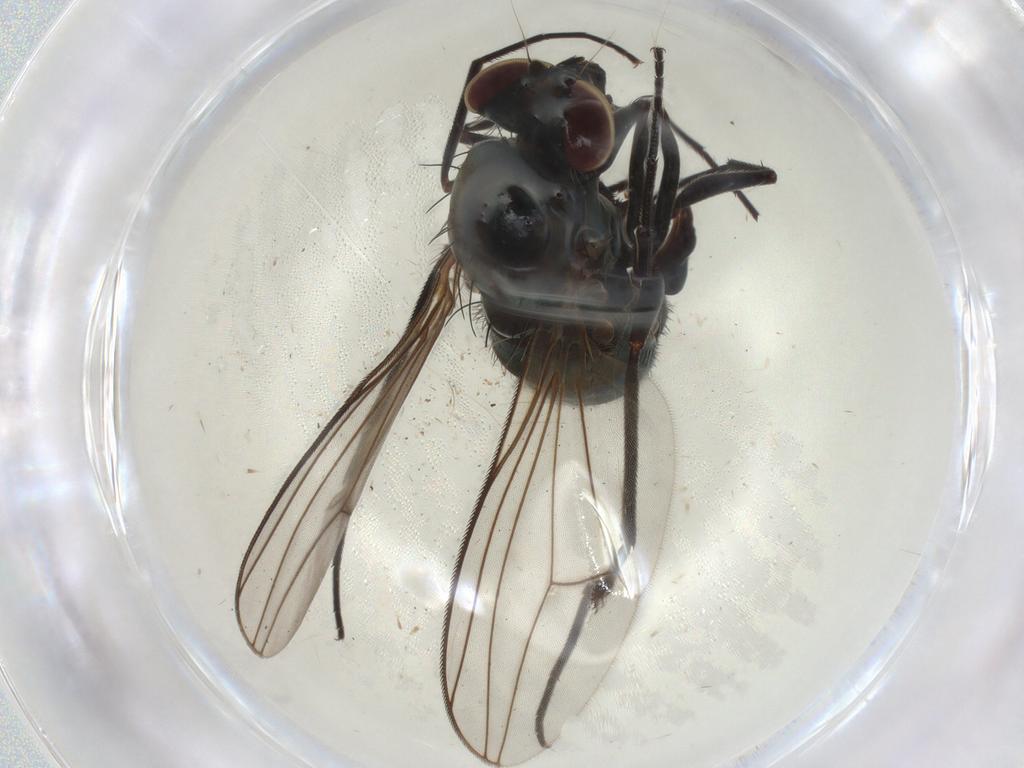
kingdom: Animalia
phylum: Arthropoda
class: Insecta
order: Diptera
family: Dolichopodidae
